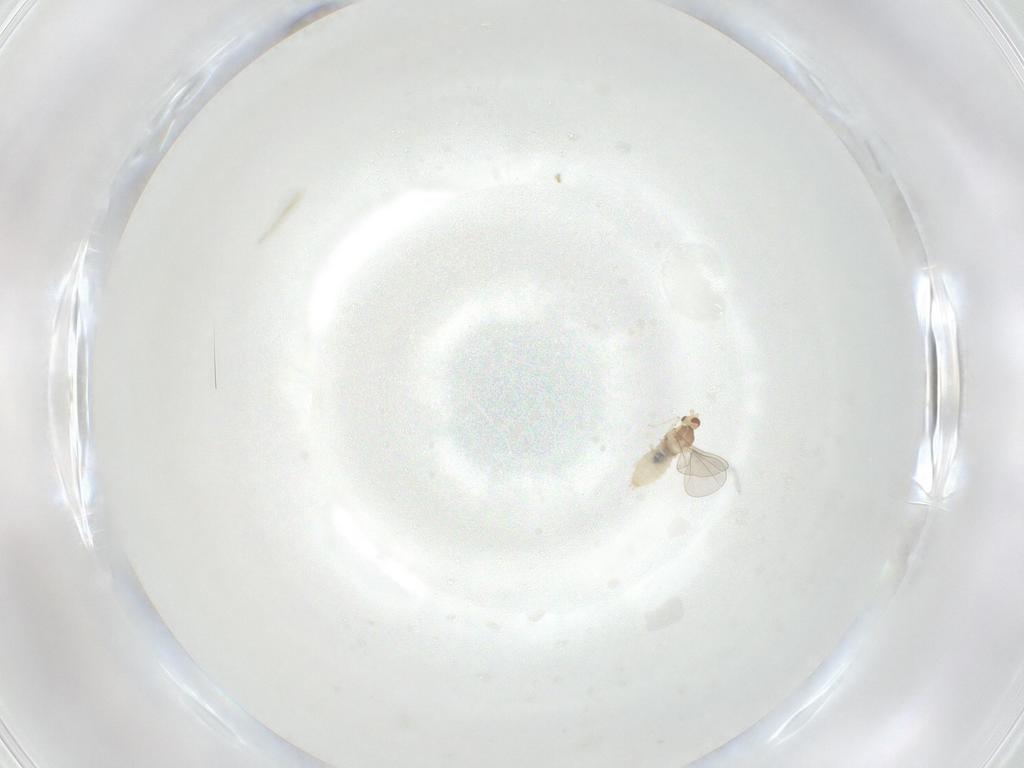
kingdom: Animalia
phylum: Arthropoda
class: Insecta
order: Diptera
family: Cecidomyiidae
